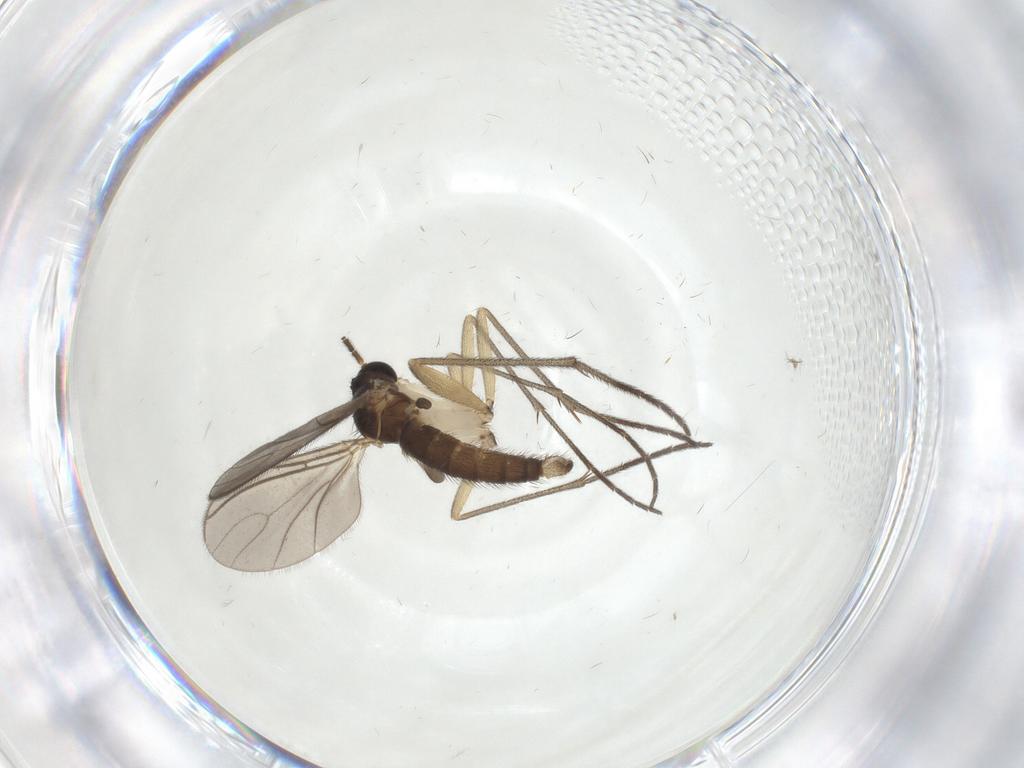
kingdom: Animalia
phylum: Arthropoda
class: Insecta
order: Diptera
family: Sciaridae
